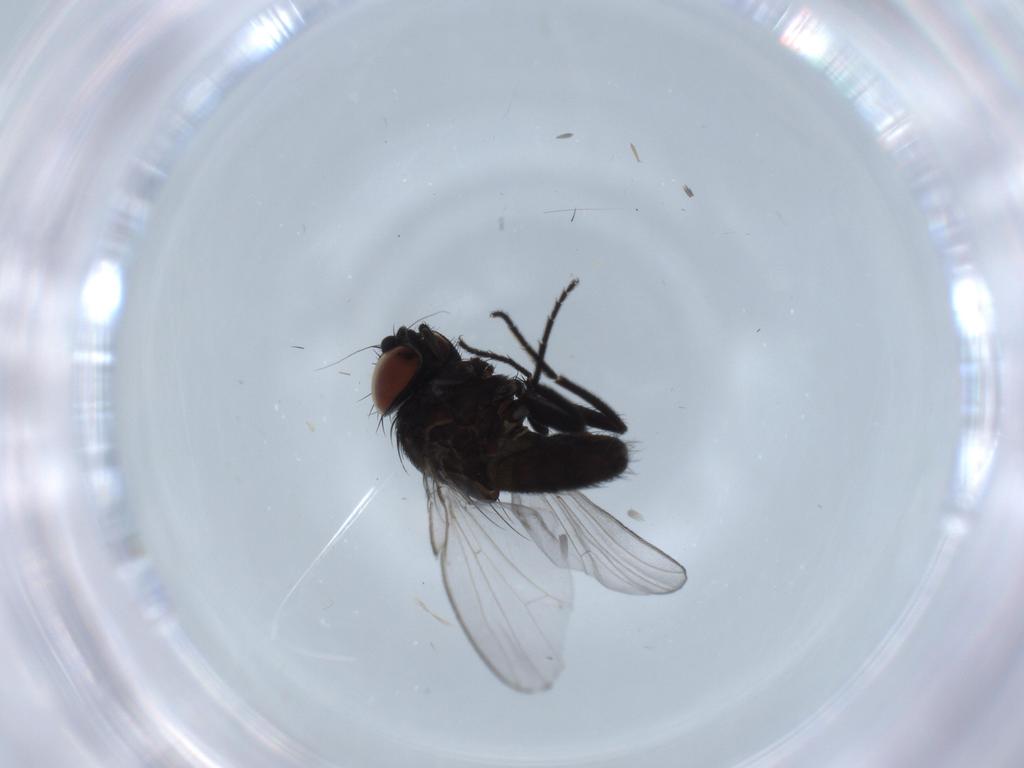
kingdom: Animalia
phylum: Arthropoda
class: Insecta
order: Diptera
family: Milichiidae
